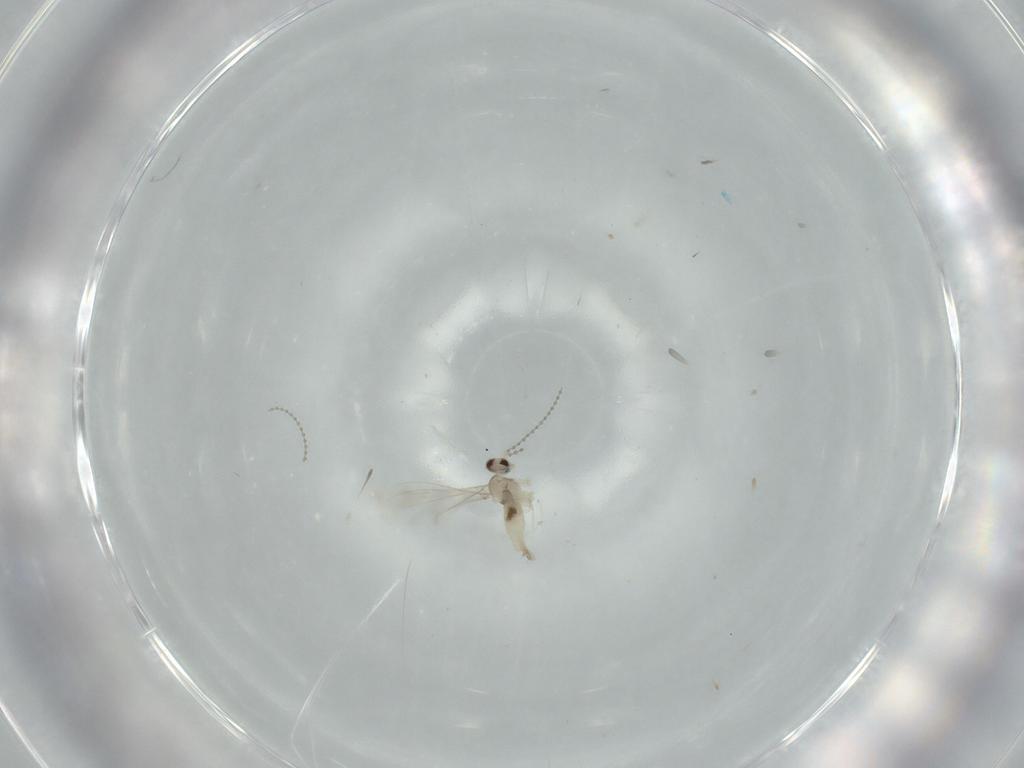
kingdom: Animalia
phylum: Arthropoda
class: Insecta
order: Diptera
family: Cecidomyiidae
